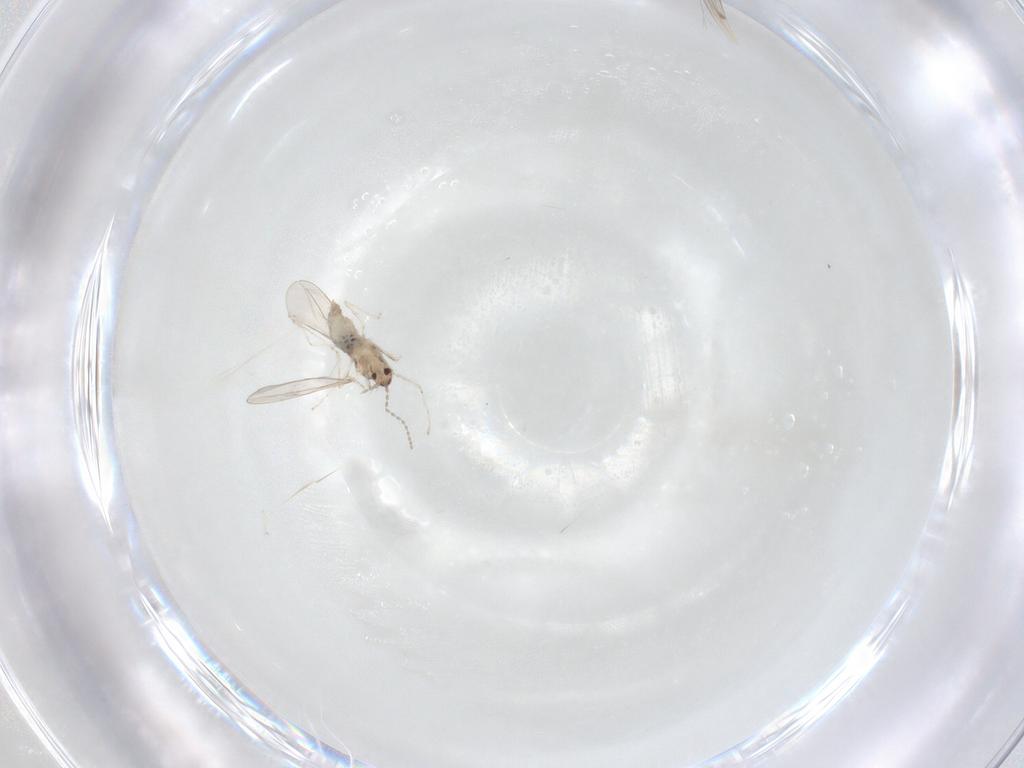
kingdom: Animalia
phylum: Arthropoda
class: Insecta
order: Diptera
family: Cecidomyiidae
